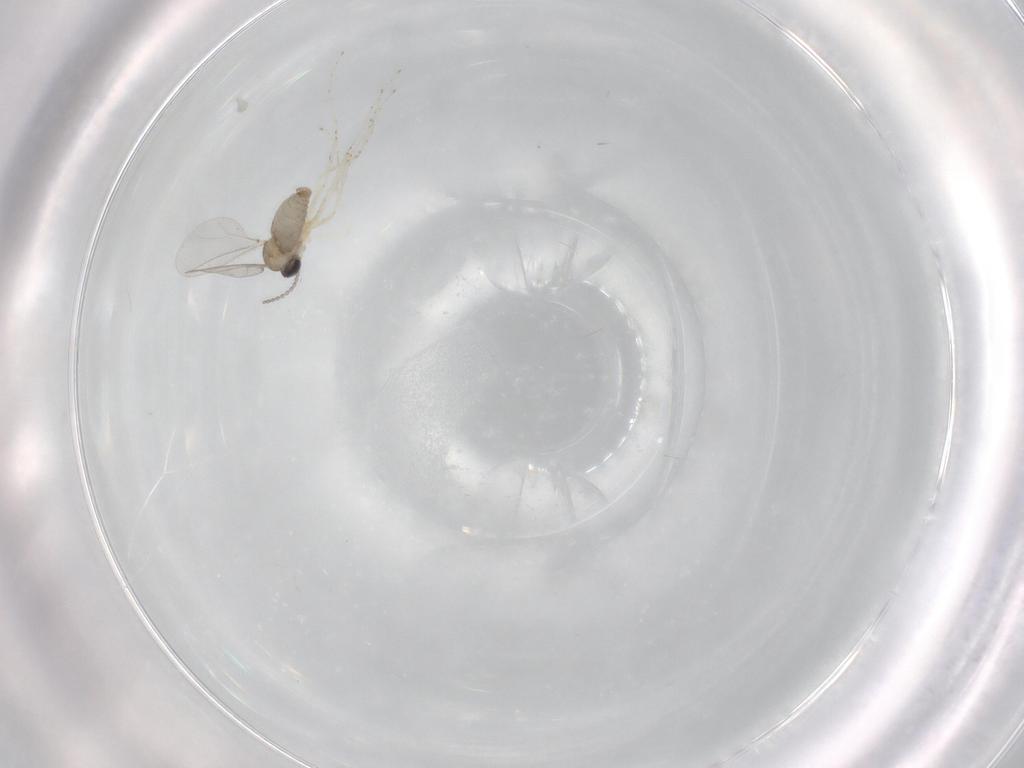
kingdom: Animalia
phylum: Arthropoda
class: Insecta
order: Diptera
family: Cecidomyiidae
